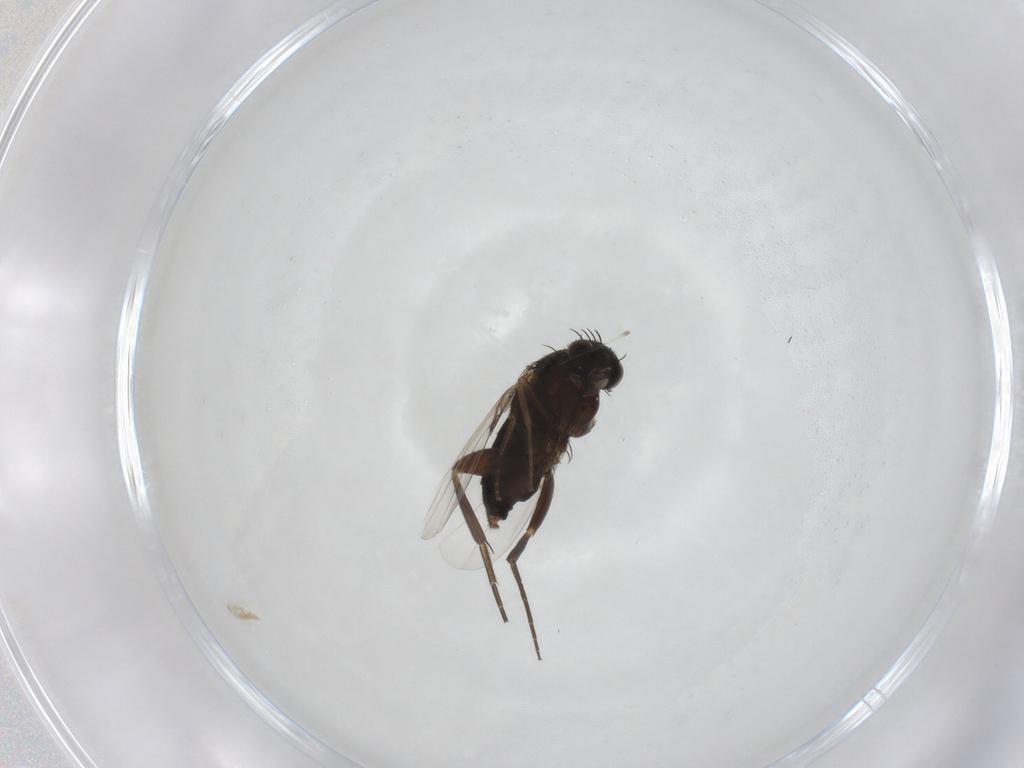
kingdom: Animalia
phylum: Arthropoda
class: Insecta
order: Diptera
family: Phoridae
